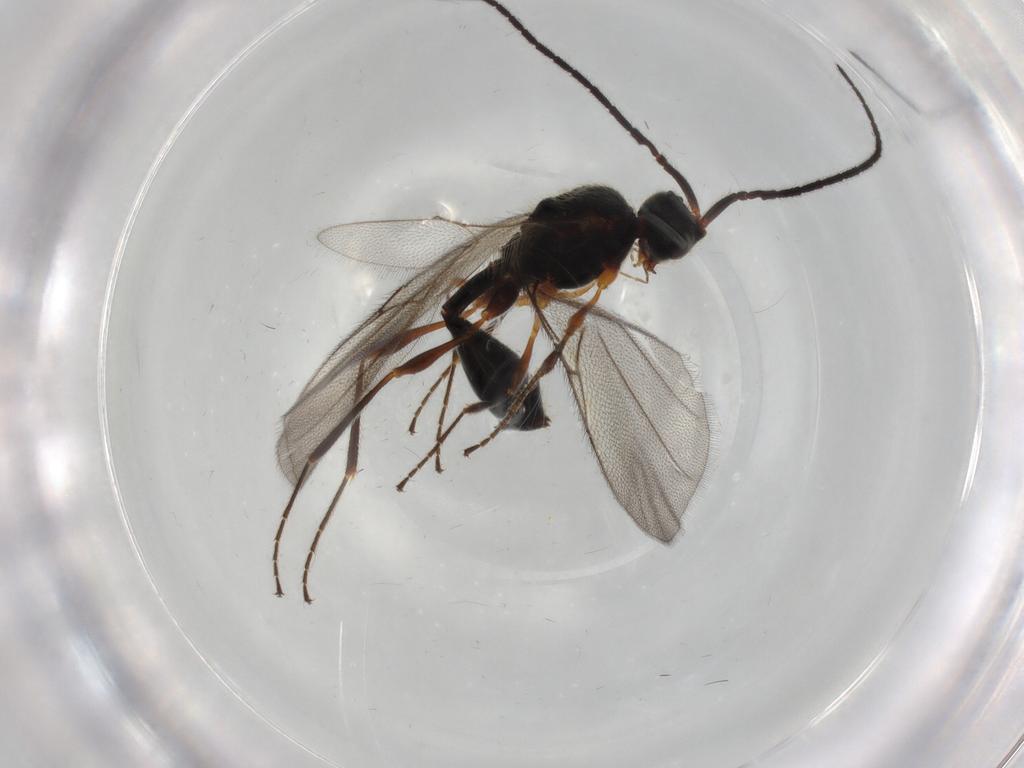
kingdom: Animalia
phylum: Arthropoda
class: Insecta
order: Hymenoptera
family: Diapriidae
